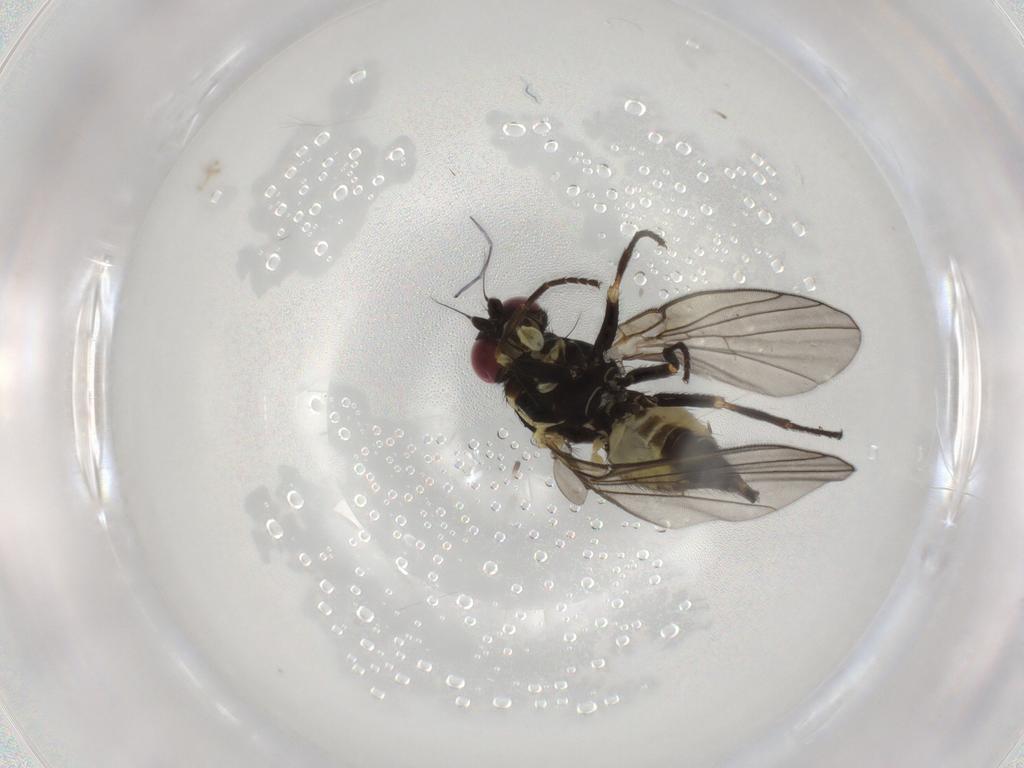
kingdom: Animalia
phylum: Arthropoda
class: Insecta
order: Diptera
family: Agromyzidae
